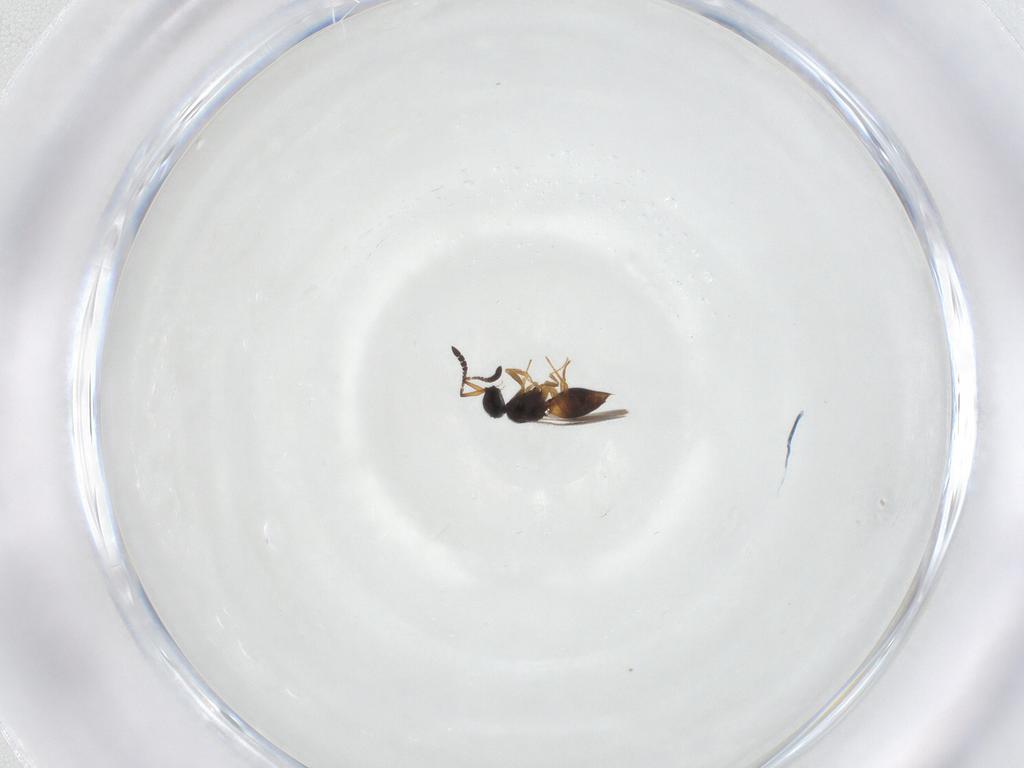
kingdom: Animalia
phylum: Arthropoda
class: Insecta
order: Hymenoptera
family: Ceraphronidae
